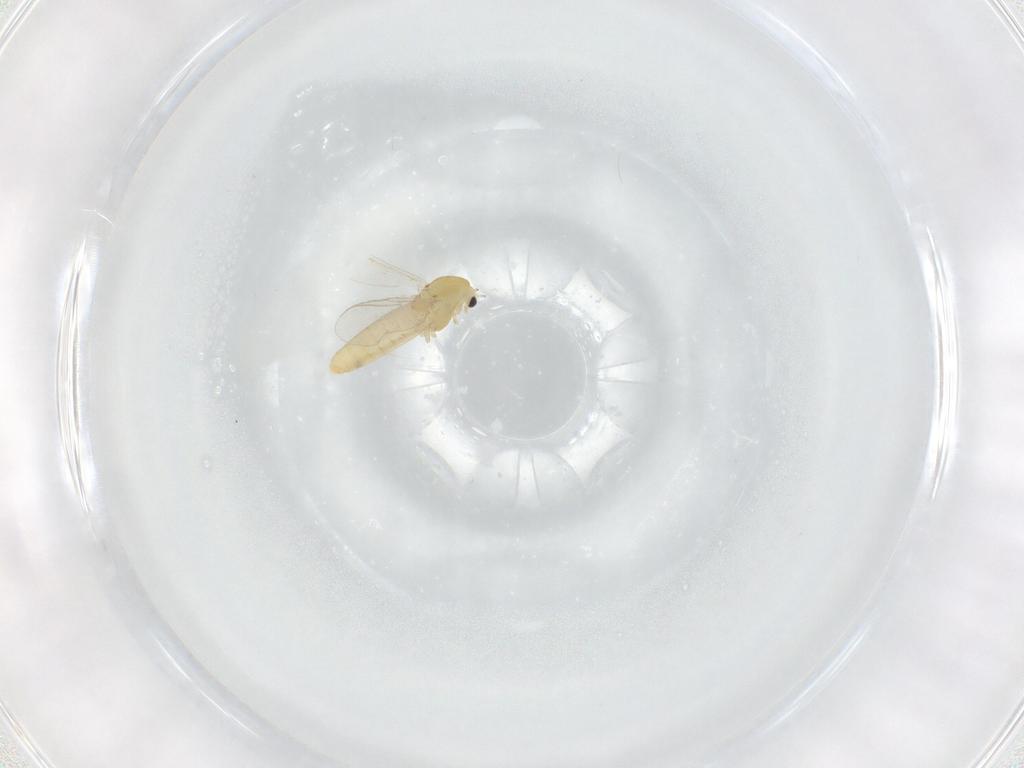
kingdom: Animalia
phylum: Arthropoda
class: Insecta
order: Diptera
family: Chironomidae
